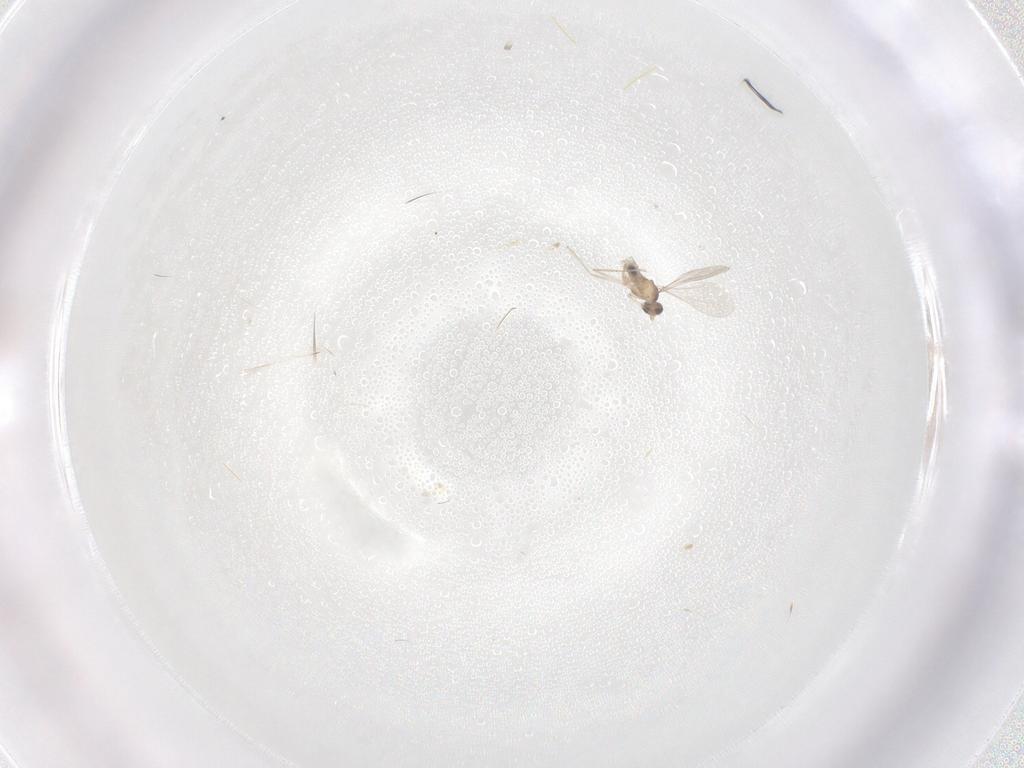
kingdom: Animalia
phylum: Arthropoda
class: Insecta
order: Diptera
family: Cecidomyiidae
